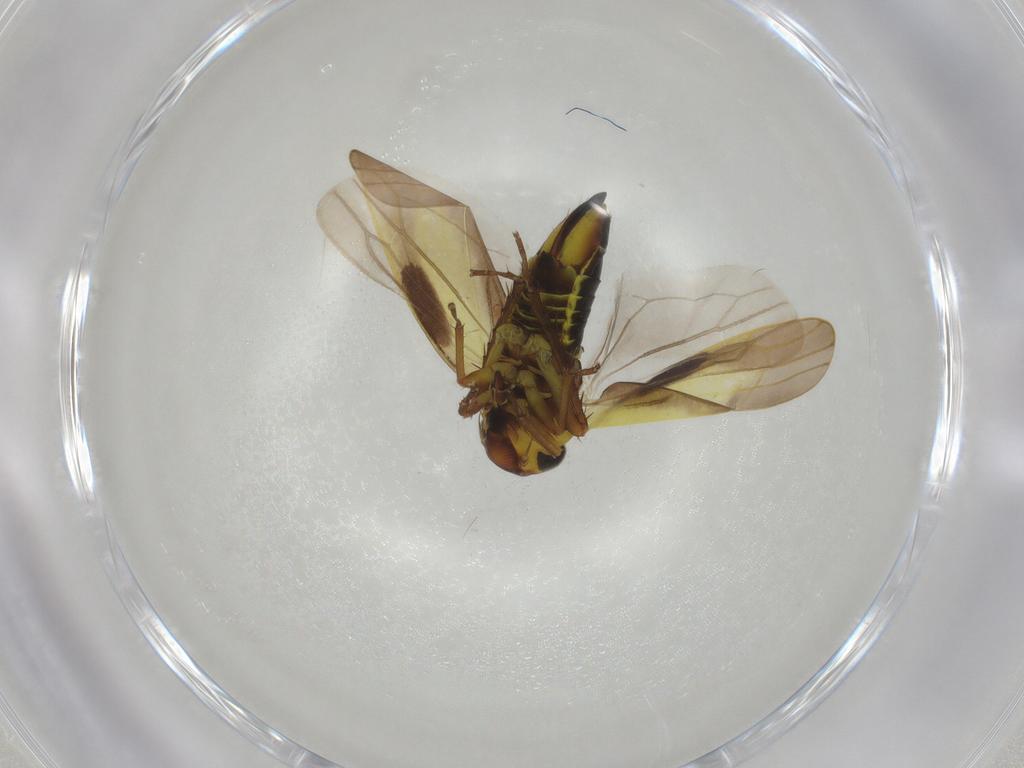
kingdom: Animalia
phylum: Arthropoda
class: Insecta
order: Hemiptera
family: Cicadellidae
